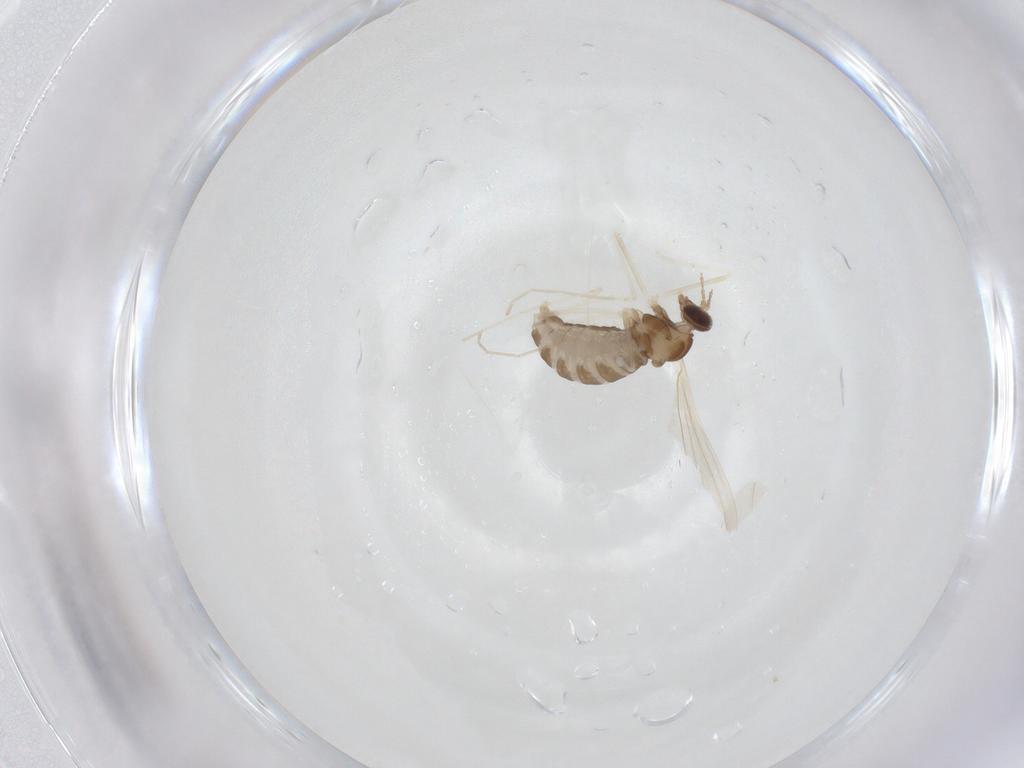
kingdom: Animalia
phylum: Arthropoda
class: Insecta
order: Diptera
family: Cecidomyiidae
